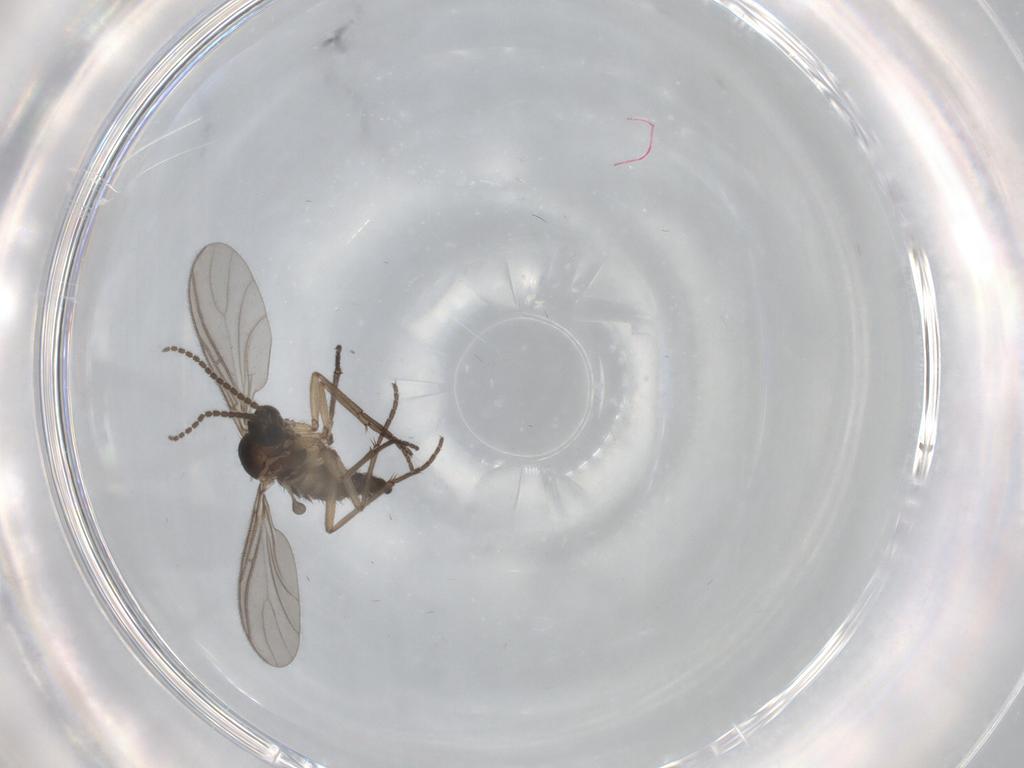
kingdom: Animalia
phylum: Arthropoda
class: Insecta
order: Diptera
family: Sciaridae
